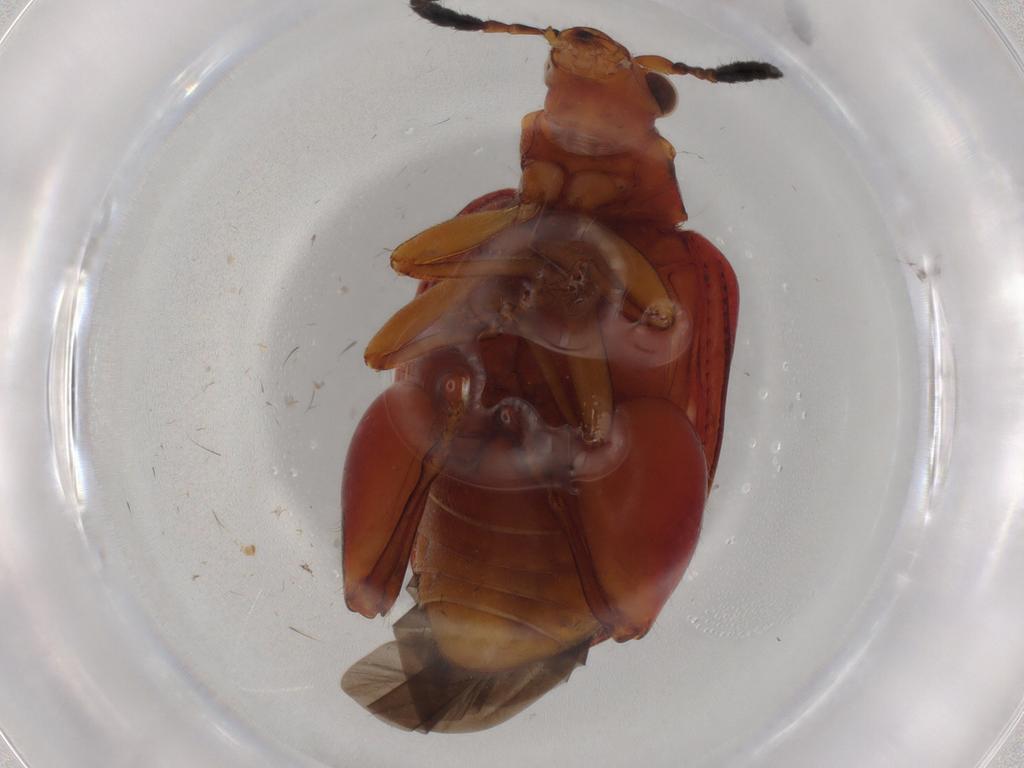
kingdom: Animalia
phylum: Arthropoda
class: Insecta
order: Coleoptera
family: Chrysomelidae
